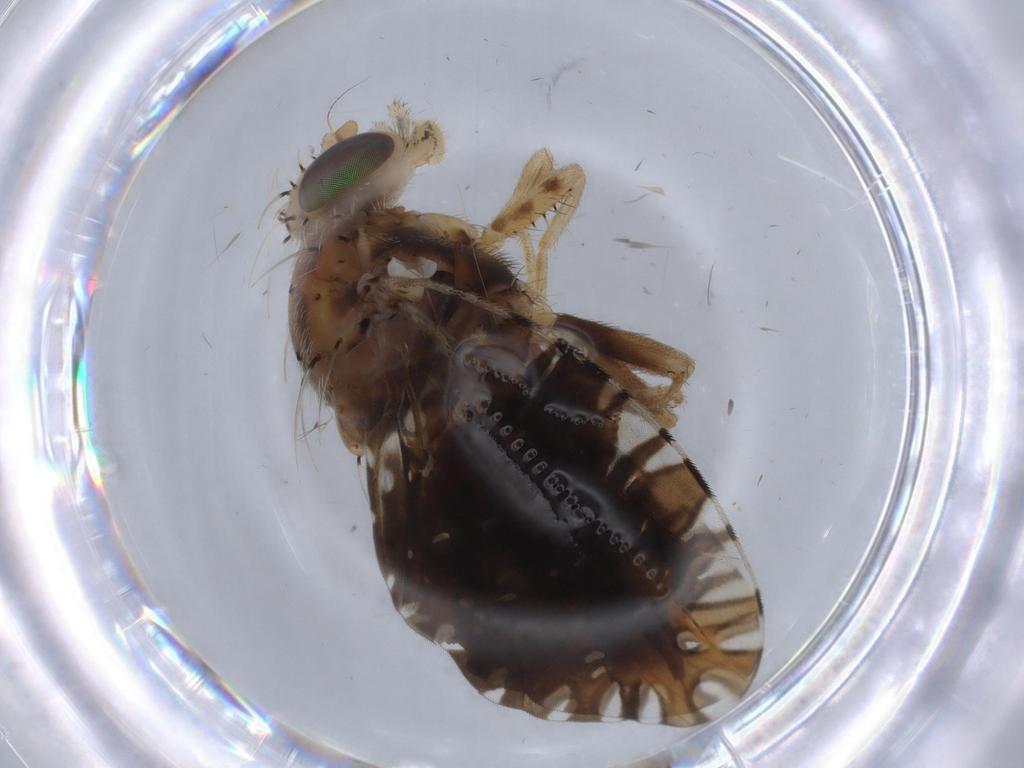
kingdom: Animalia
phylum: Arthropoda
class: Insecta
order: Diptera
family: Tephritidae
